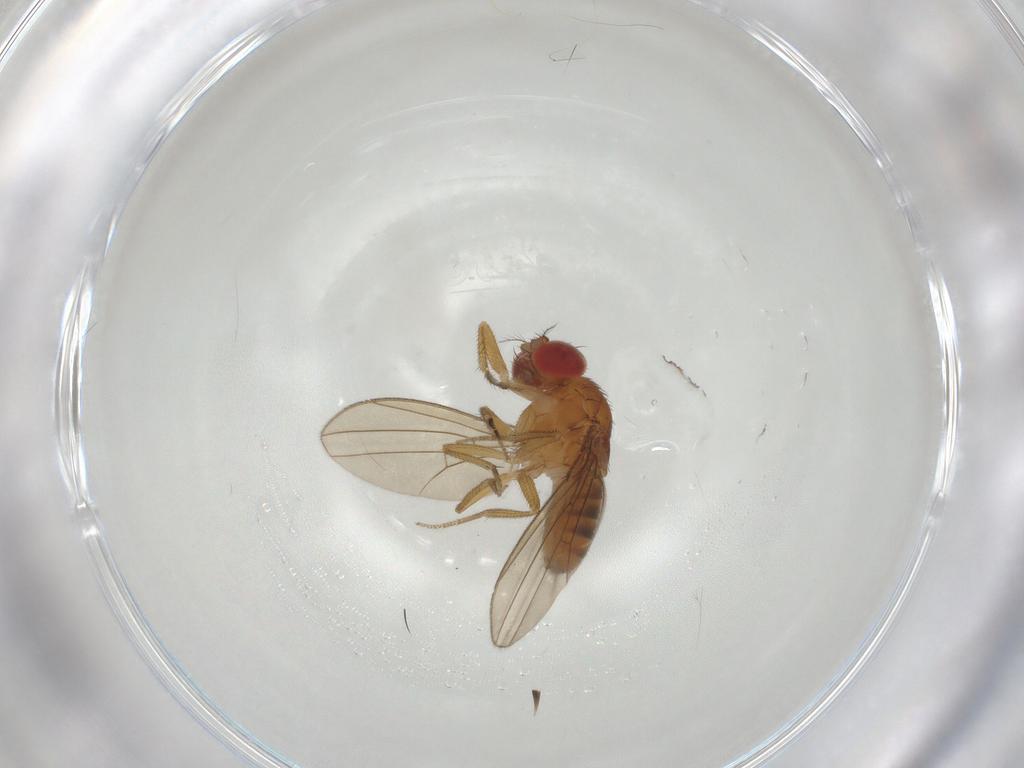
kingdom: Animalia
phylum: Arthropoda
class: Insecta
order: Diptera
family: Drosophilidae
